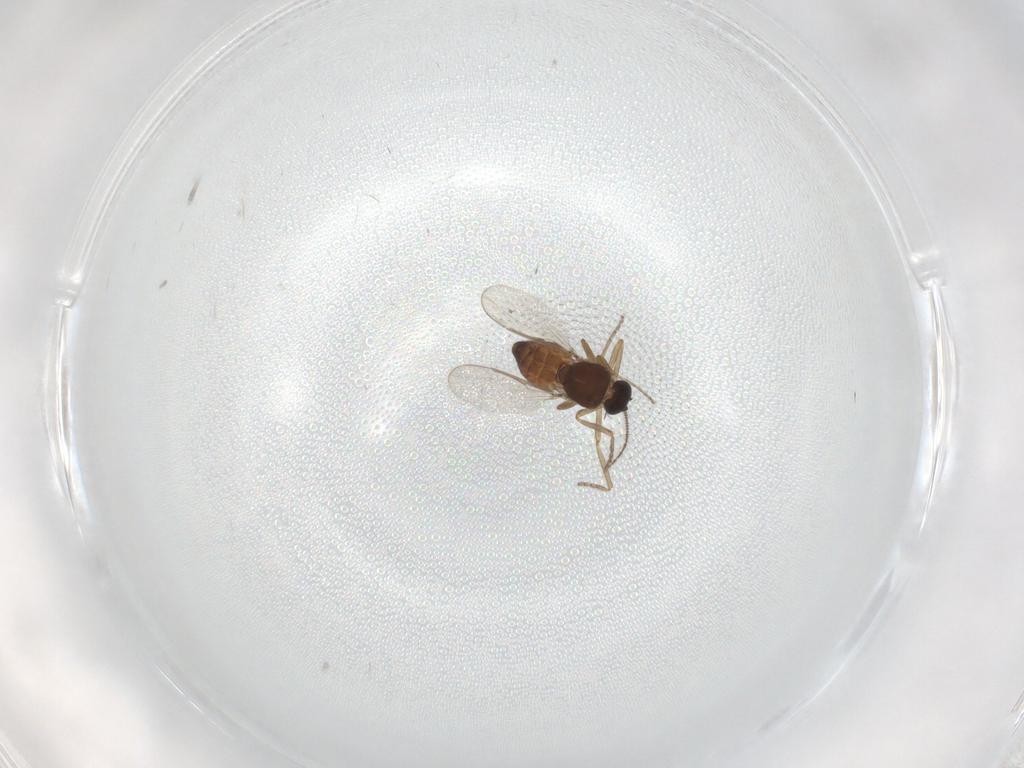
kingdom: Animalia
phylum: Arthropoda
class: Insecta
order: Diptera
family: Ceratopogonidae
